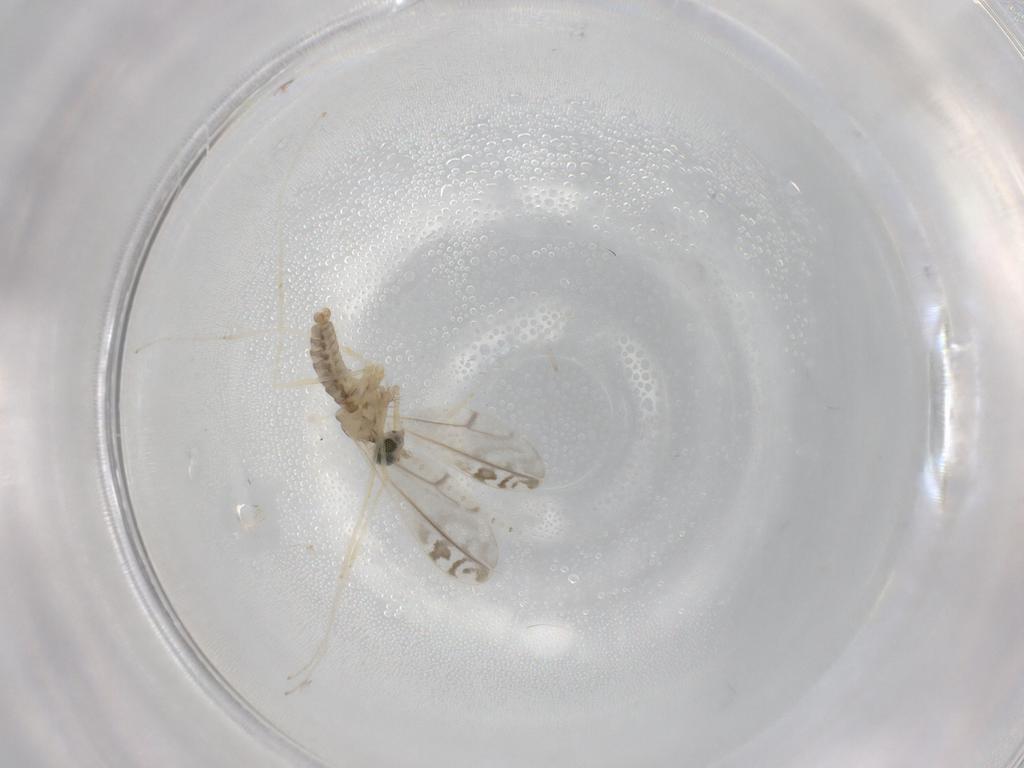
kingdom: Animalia
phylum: Arthropoda
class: Insecta
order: Diptera
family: Cecidomyiidae
